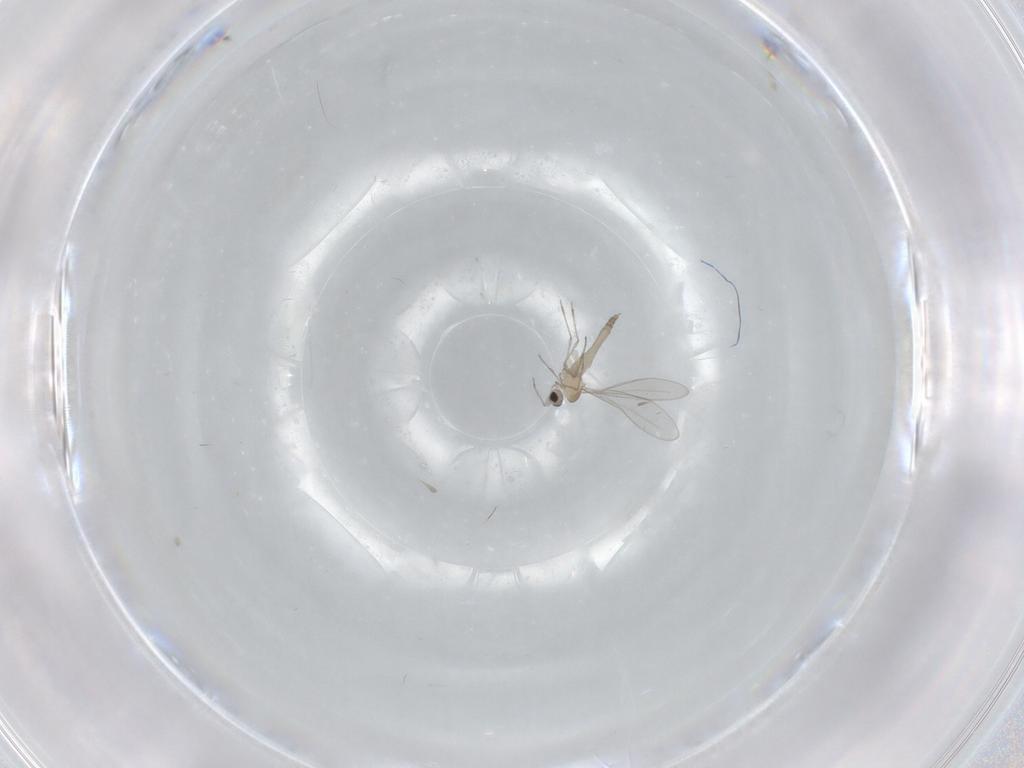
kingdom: Animalia
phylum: Arthropoda
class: Insecta
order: Diptera
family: Cecidomyiidae
